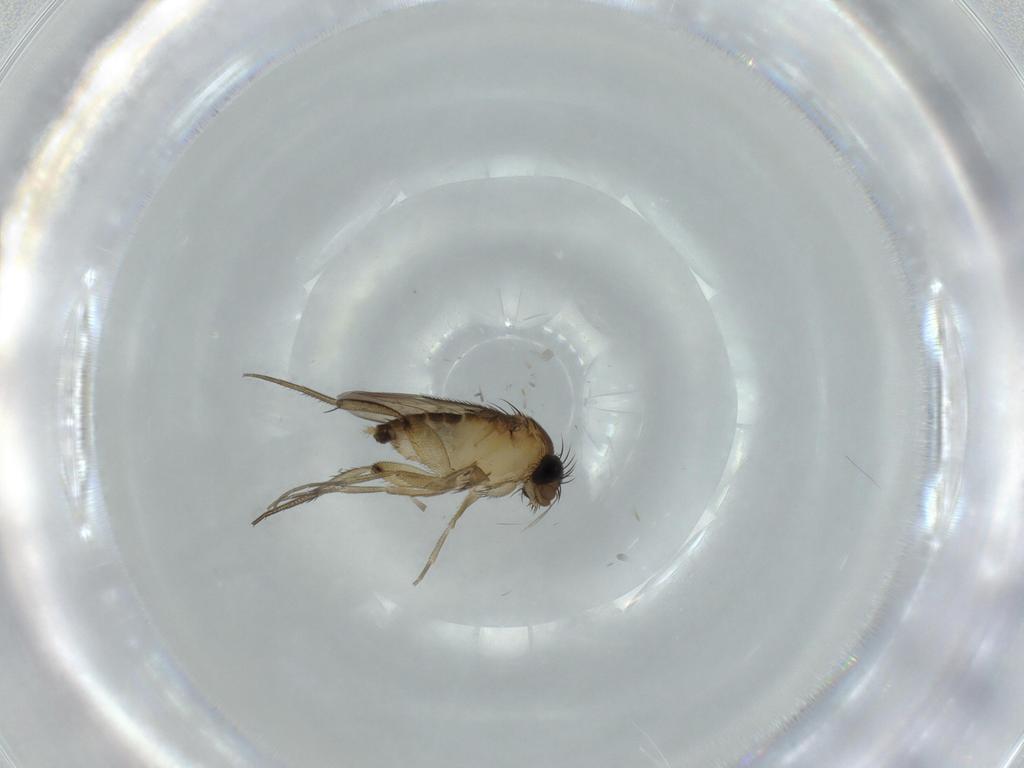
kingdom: Animalia
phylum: Arthropoda
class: Insecta
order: Diptera
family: Phoridae
